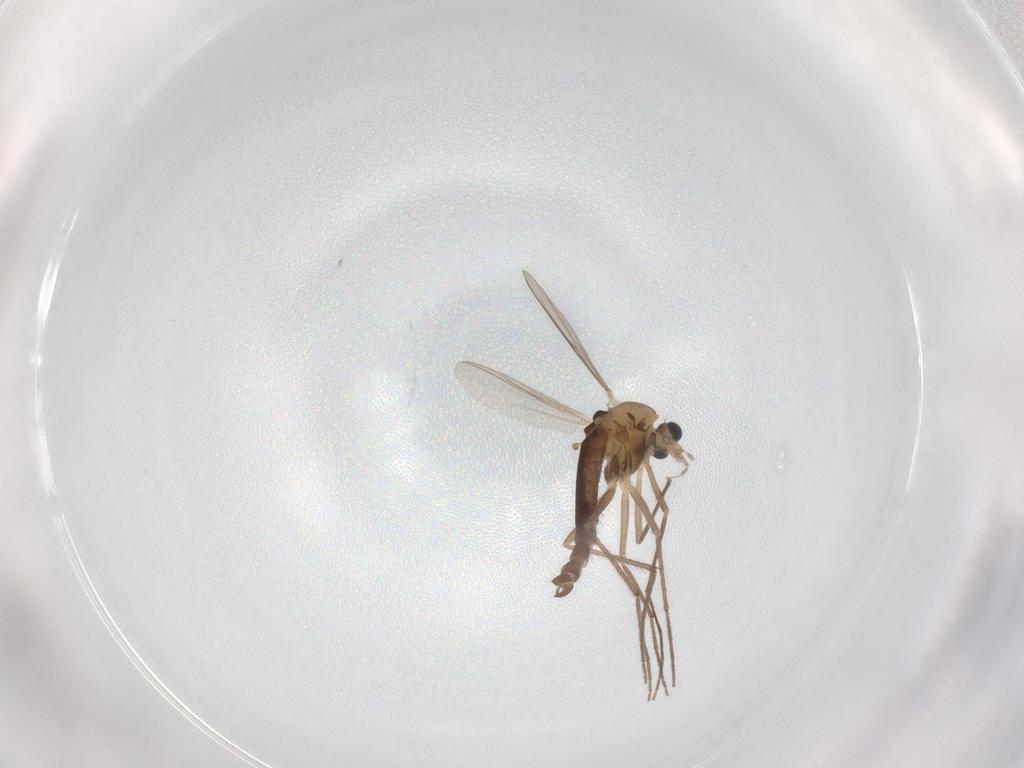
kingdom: Animalia
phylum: Arthropoda
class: Insecta
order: Diptera
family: Chironomidae
